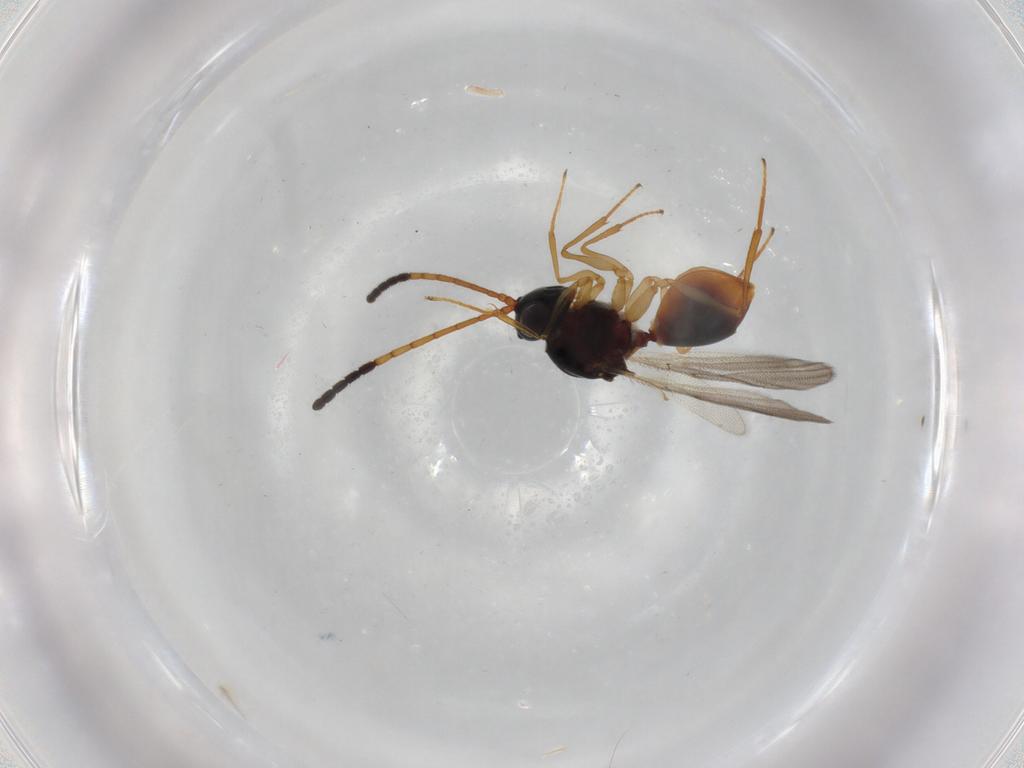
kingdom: Animalia
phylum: Arthropoda
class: Insecta
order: Hymenoptera
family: Figitidae
